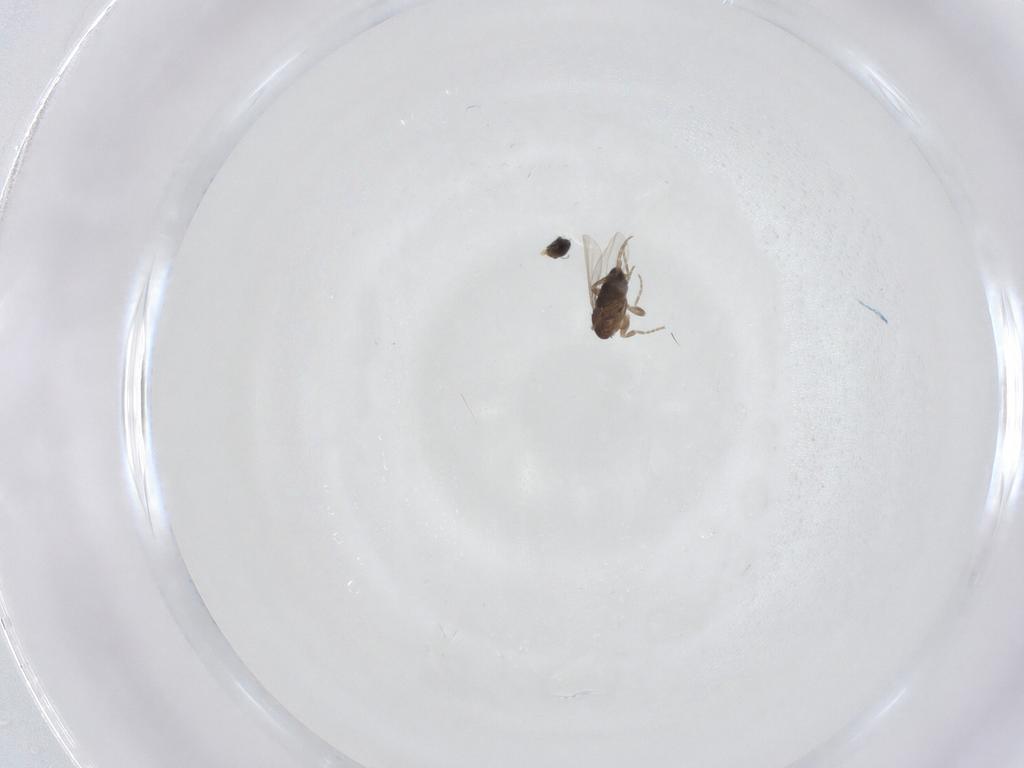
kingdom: Animalia
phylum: Arthropoda
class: Insecta
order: Diptera
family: Phoridae
